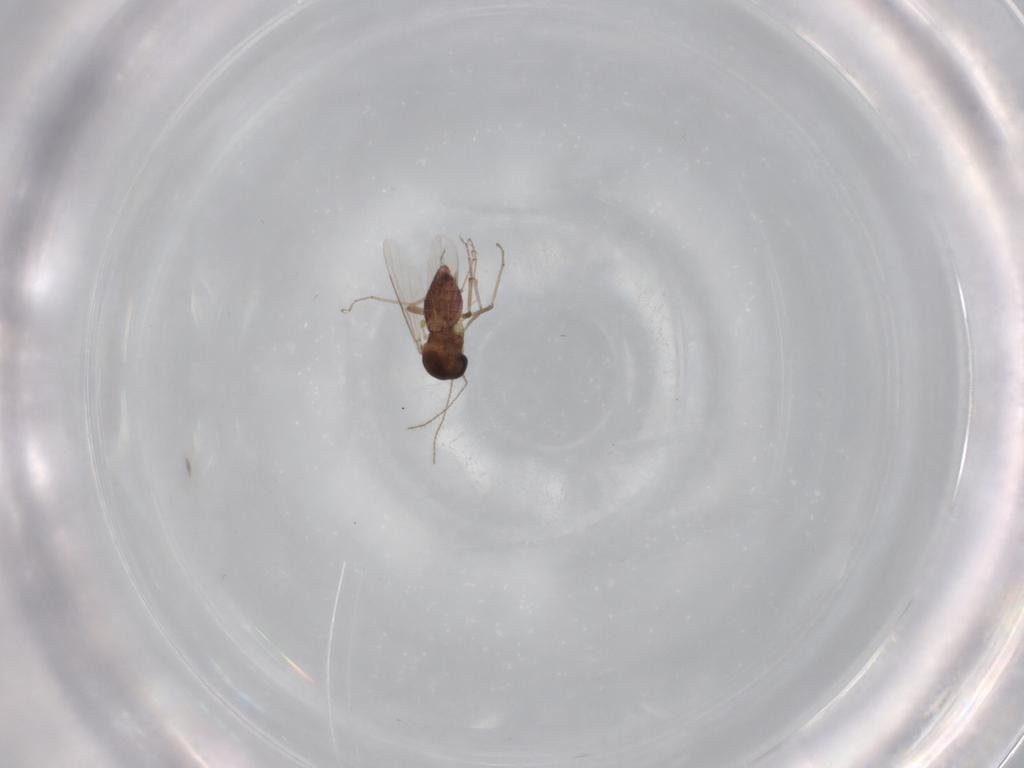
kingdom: Animalia
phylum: Arthropoda
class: Insecta
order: Diptera
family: Ceratopogonidae
